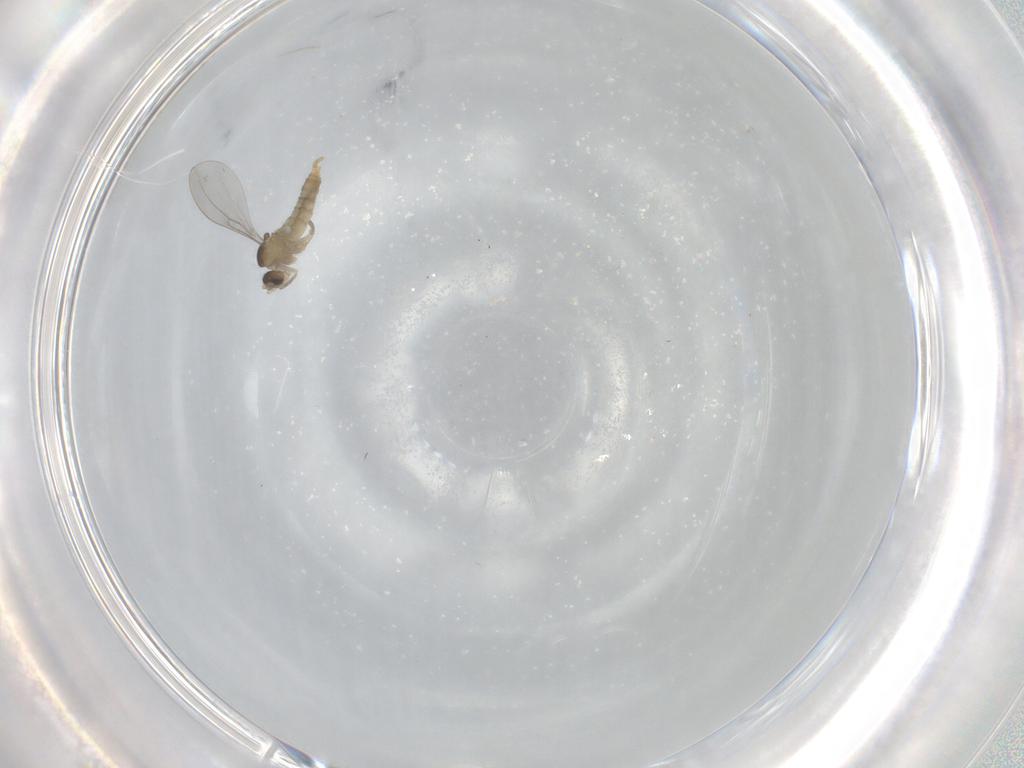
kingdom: Animalia
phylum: Arthropoda
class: Insecta
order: Diptera
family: Cecidomyiidae
